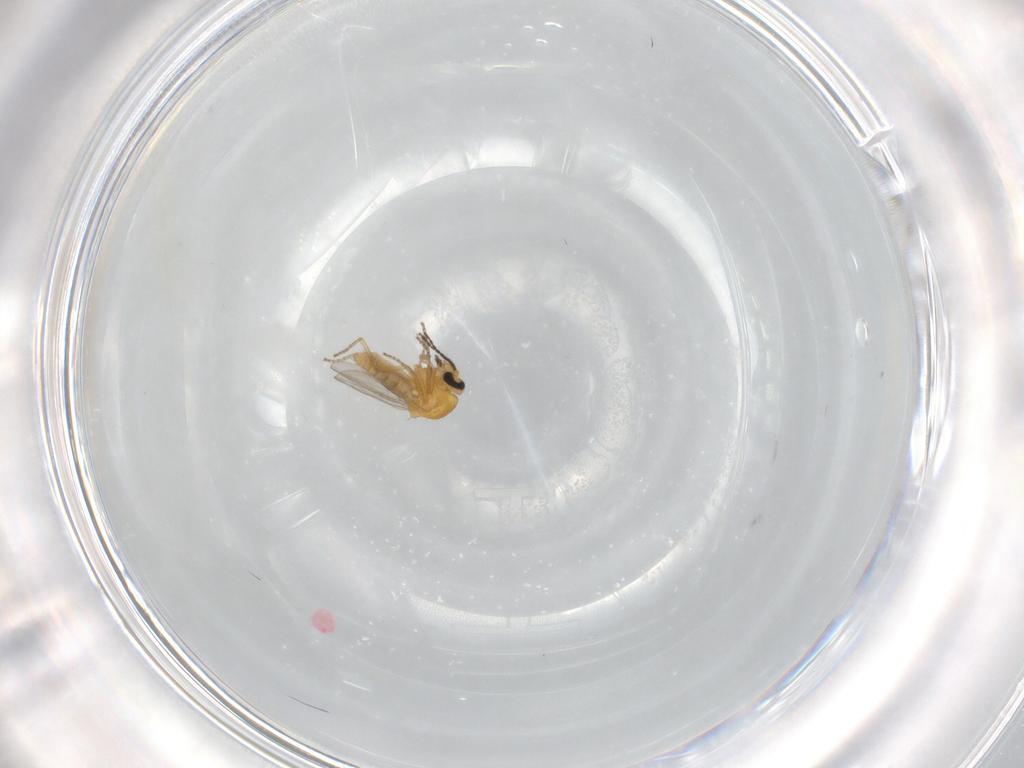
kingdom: Animalia
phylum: Arthropoda
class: Insecta
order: Diptera
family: Ceratopogonidae
